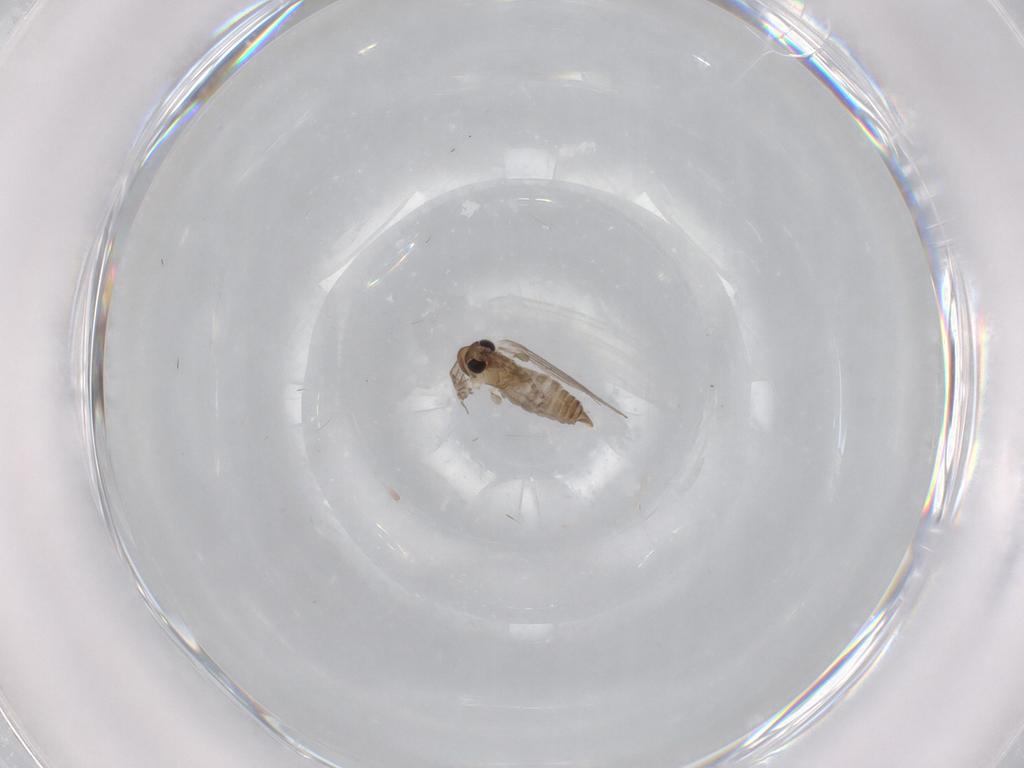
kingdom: Animalia
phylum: Arthropoda
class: Insecta
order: Diptera
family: Cecidomyiidae
